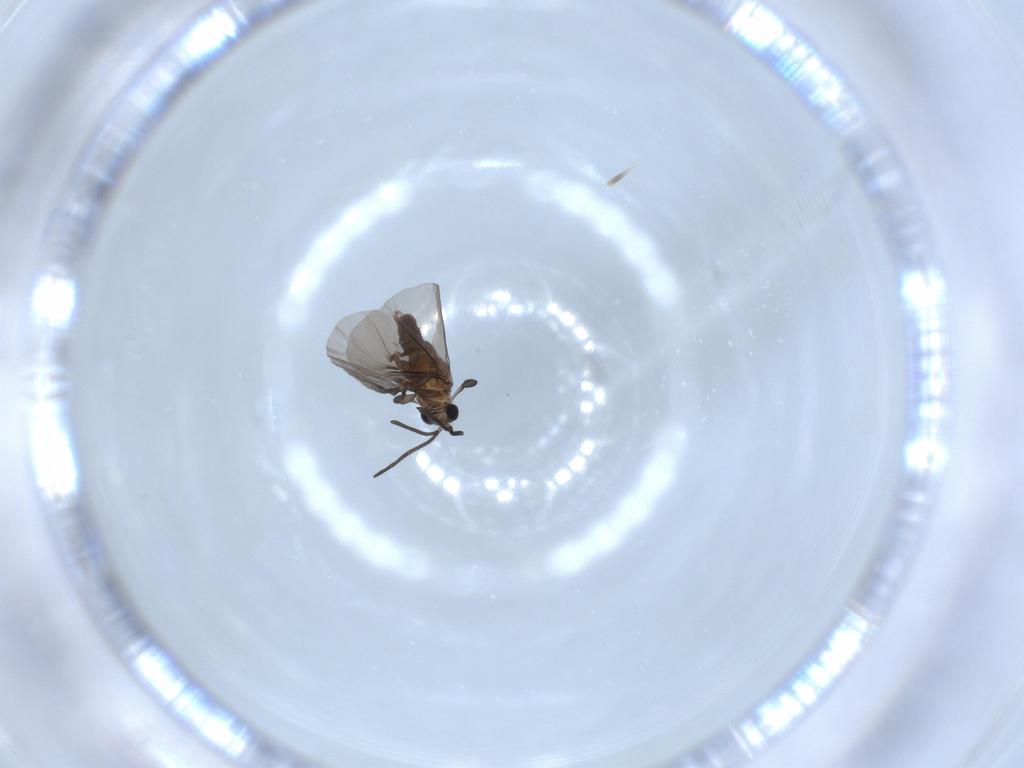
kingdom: Animalia
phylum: Arthropoda
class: Insecta
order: Strepsiptera
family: Myrmecolacidae
